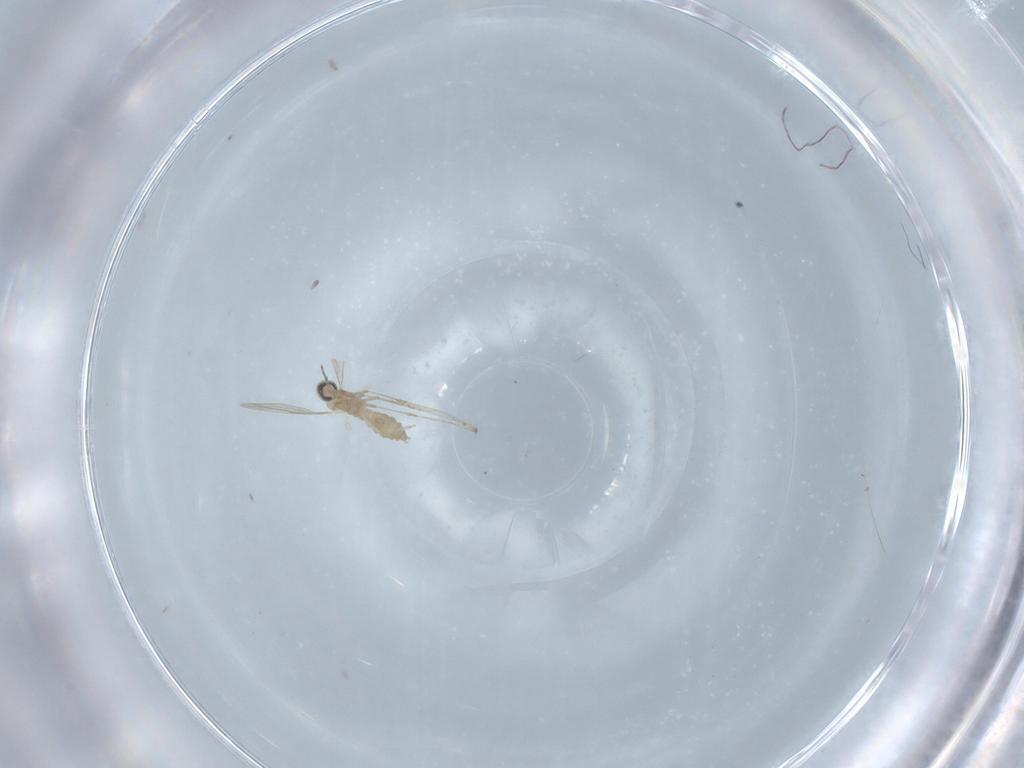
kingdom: Animalia
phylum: Arthropoda
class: Insecta
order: Diptera
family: Cecidomyiidae
